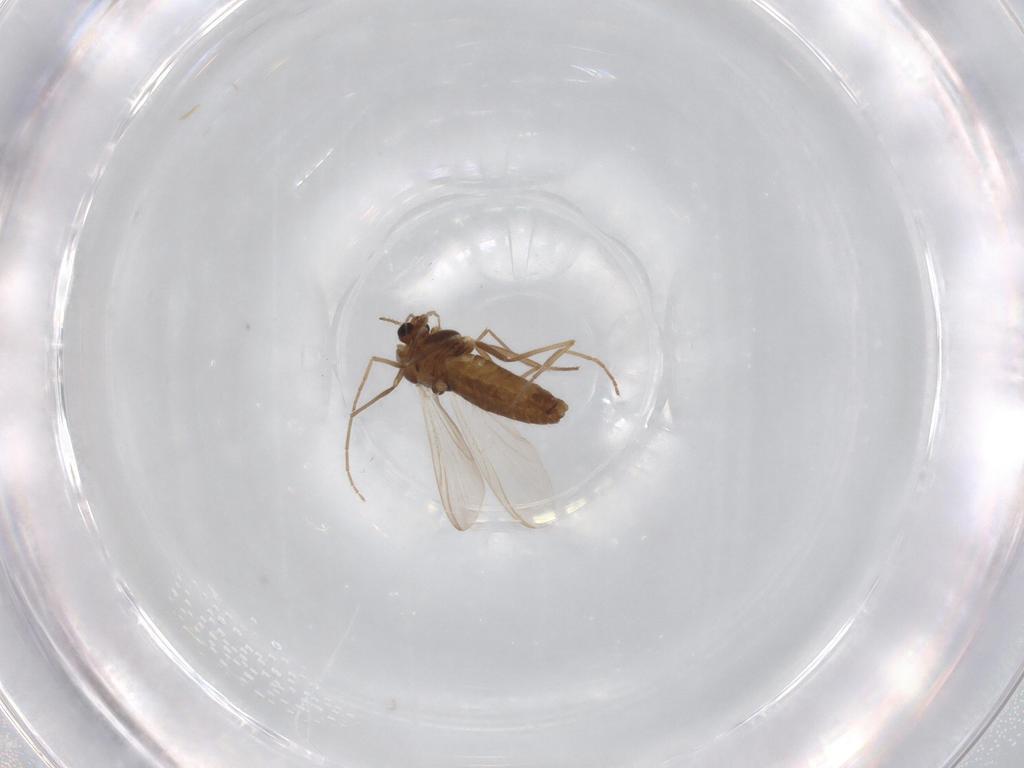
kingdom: Animalia
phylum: Arthropoda
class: Insecta
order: Diptera
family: Chironomidae
